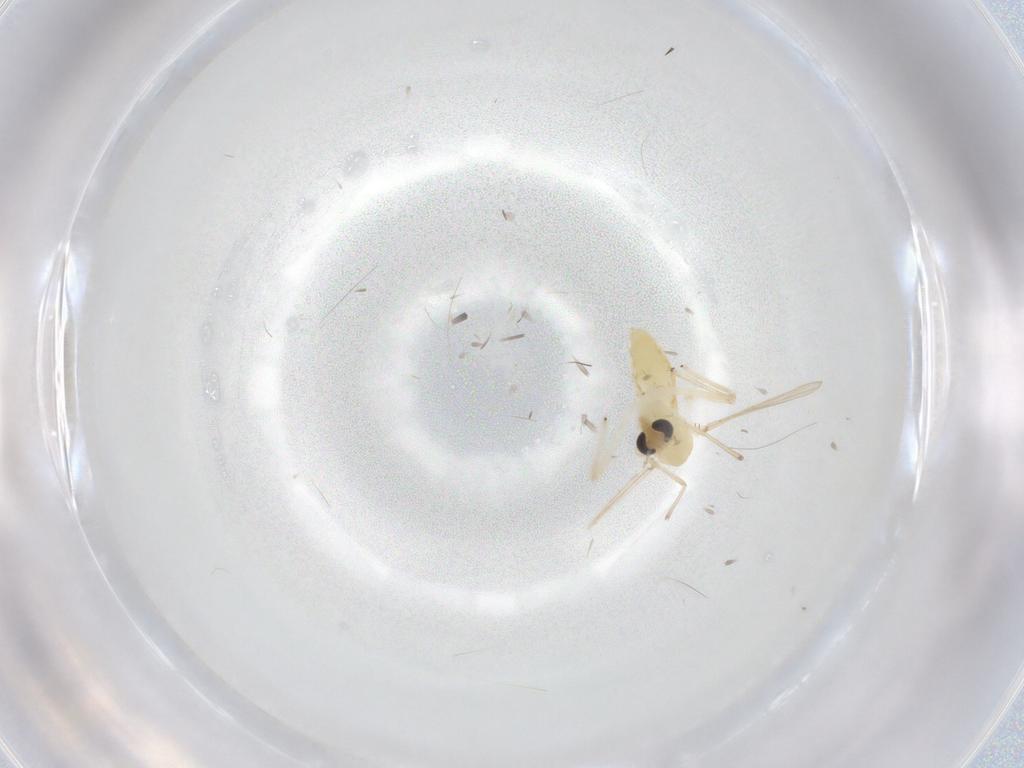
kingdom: Animalia
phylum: Arthropoda
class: Insecta
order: Diptera
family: Chironomidae
